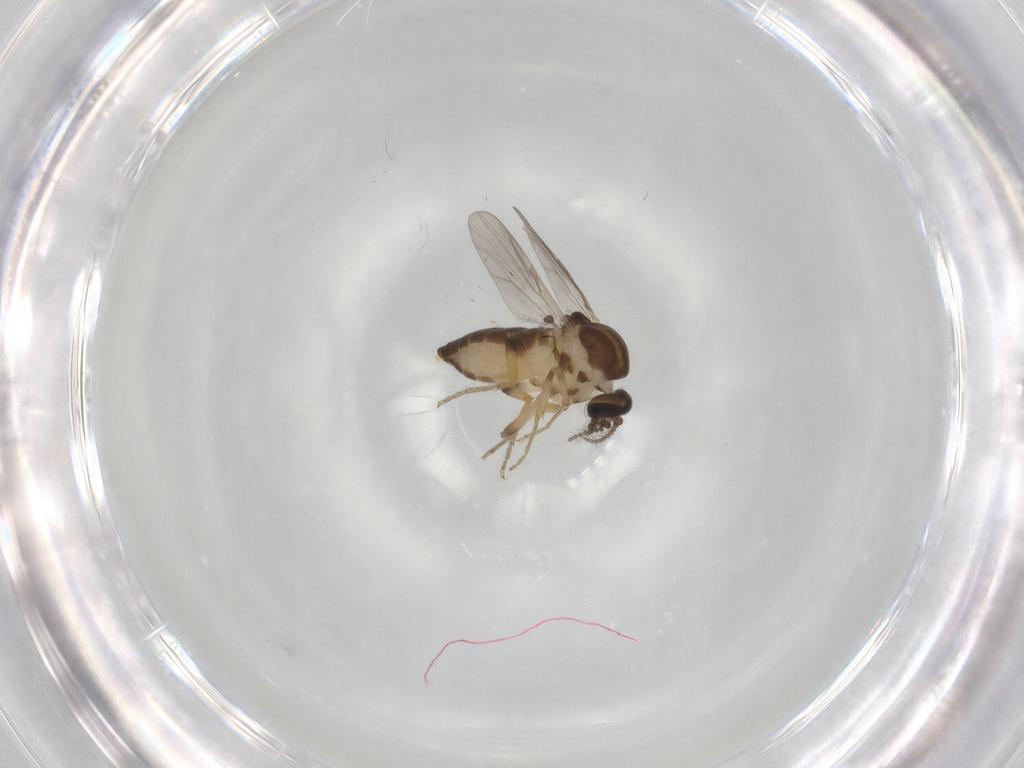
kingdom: Animalia
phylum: Arthropoda
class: Insecta
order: Diptera
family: Ceratopogonidae
